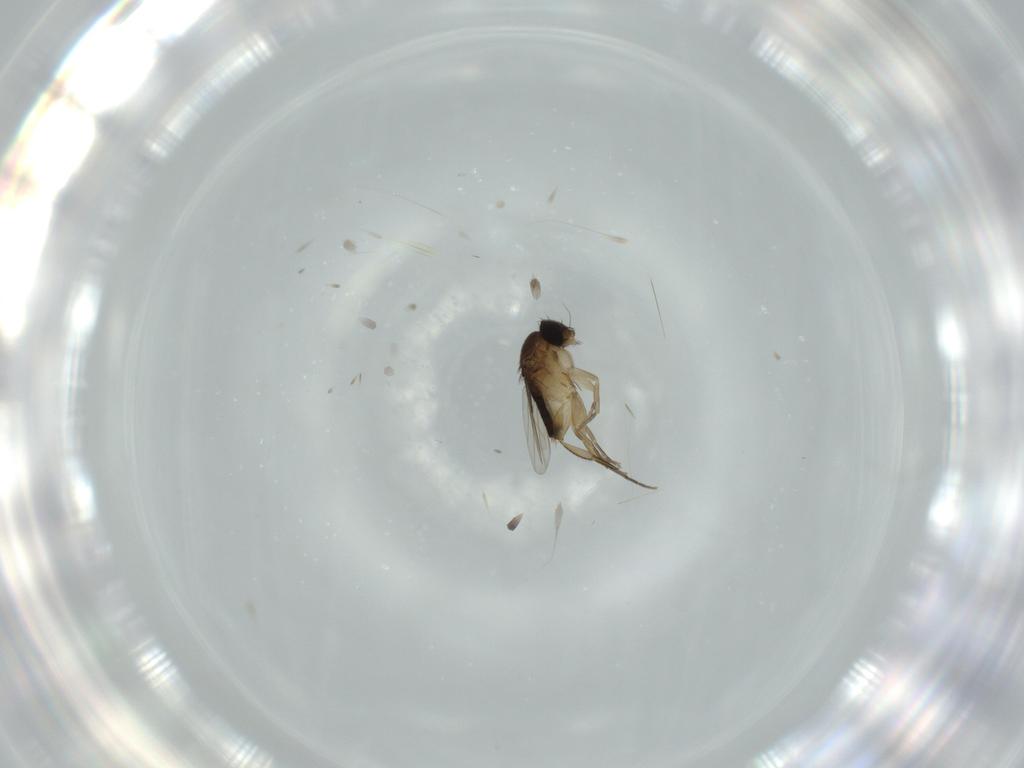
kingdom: Animalia
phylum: Arthropoda
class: Insecta
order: Diptera
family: Phoridae
